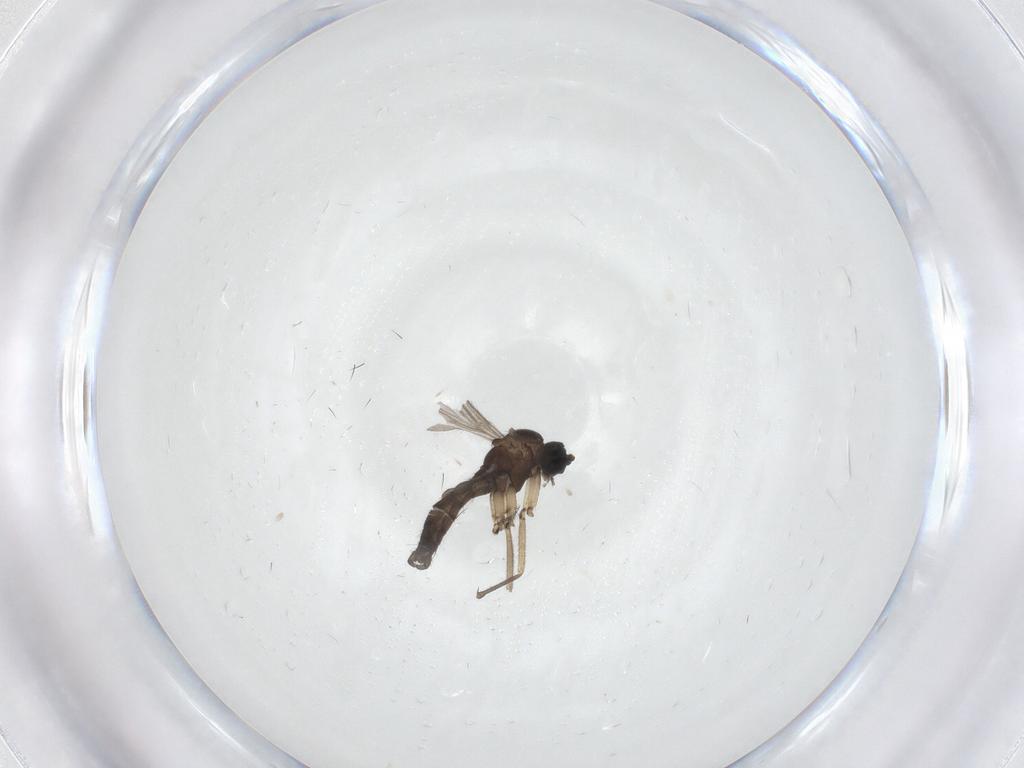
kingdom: Animalia
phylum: Arthropoda
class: Insecta
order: Diptera
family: Sciaridae
